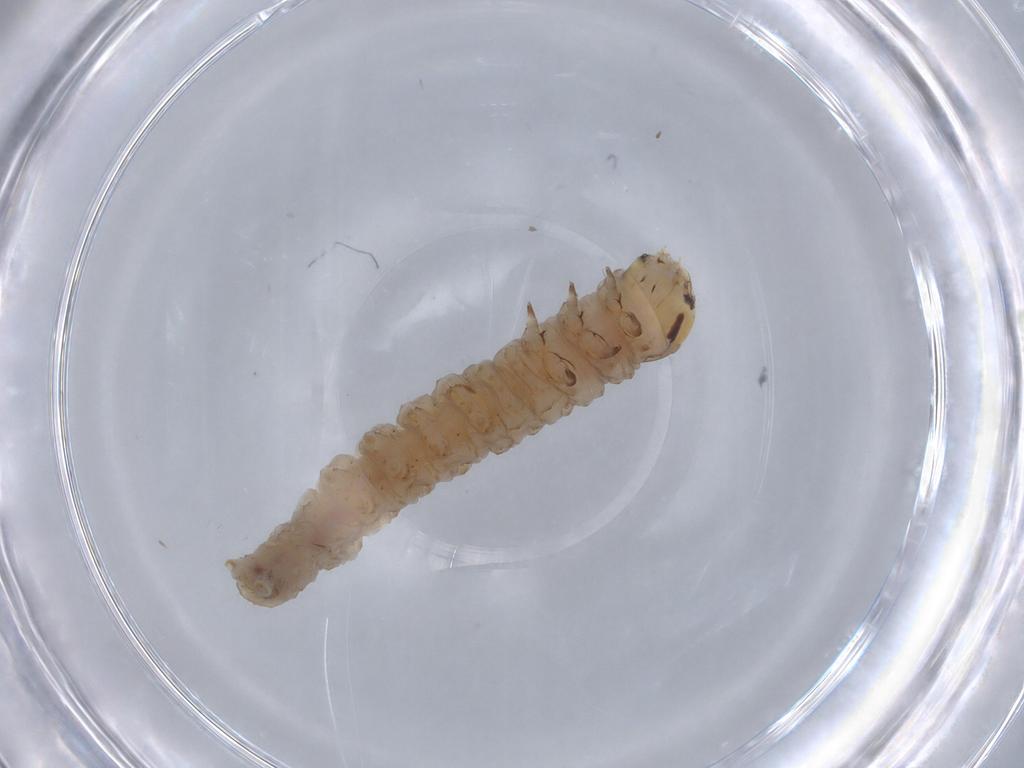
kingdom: Animalia
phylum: Arthropoda
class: Insecta
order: Lepidoptera
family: Tortricidae
